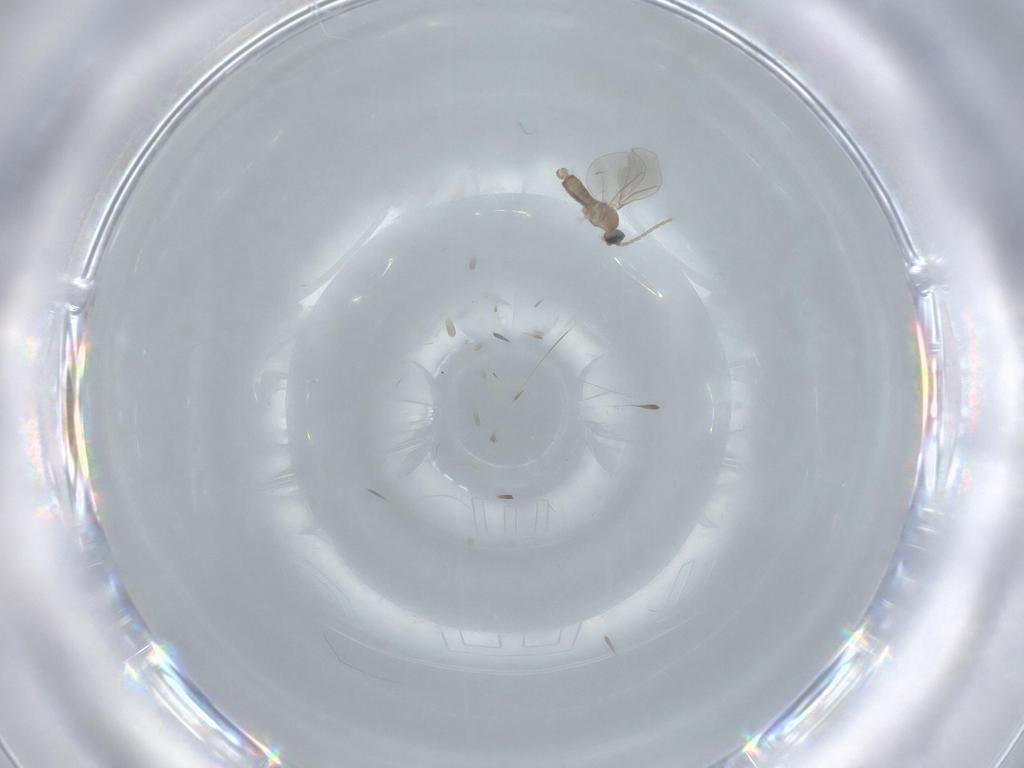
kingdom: Animalia
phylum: Arthropoda
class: Insecta
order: Diptera
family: Cecidomyiidae
